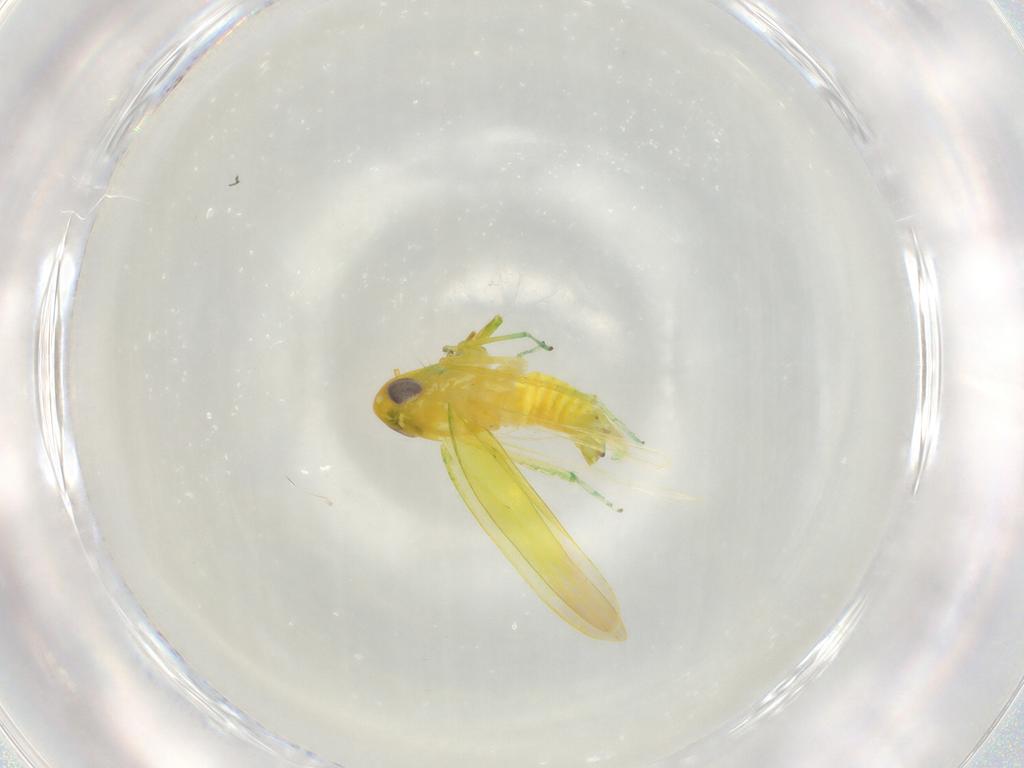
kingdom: Animalia
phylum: Arthropoda
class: Insecta
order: Hemiptera
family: Cicadellidae
